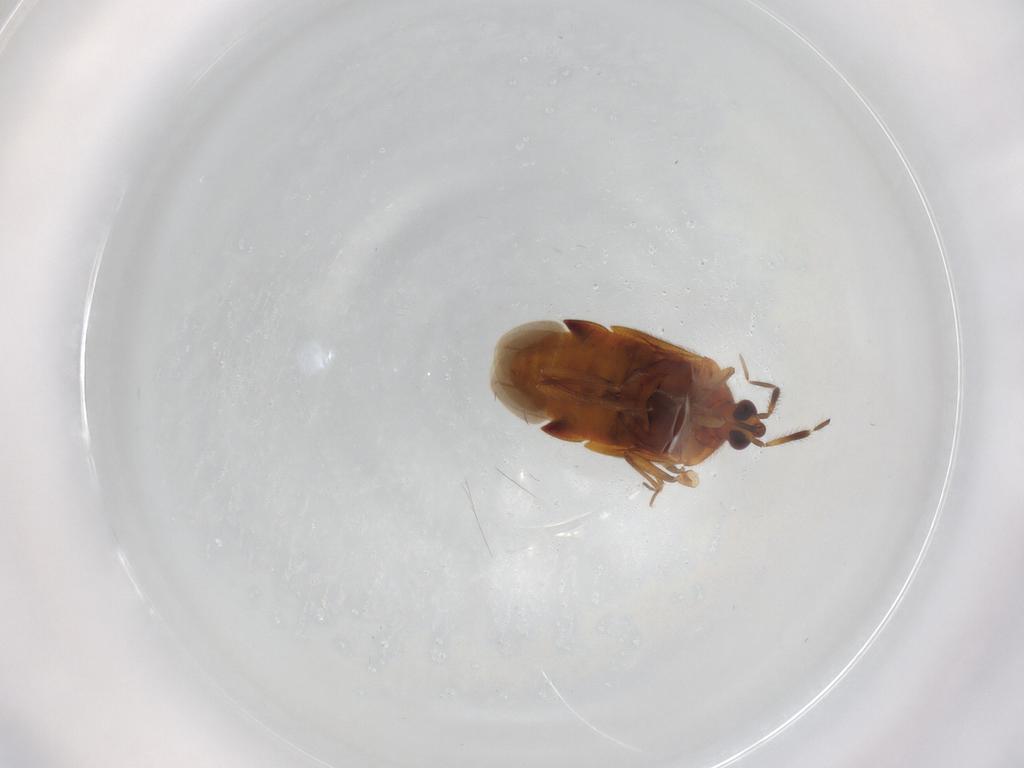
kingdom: Animalia
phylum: Arthropoda
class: Insecta
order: Hemiptera
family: Anthocoridae
